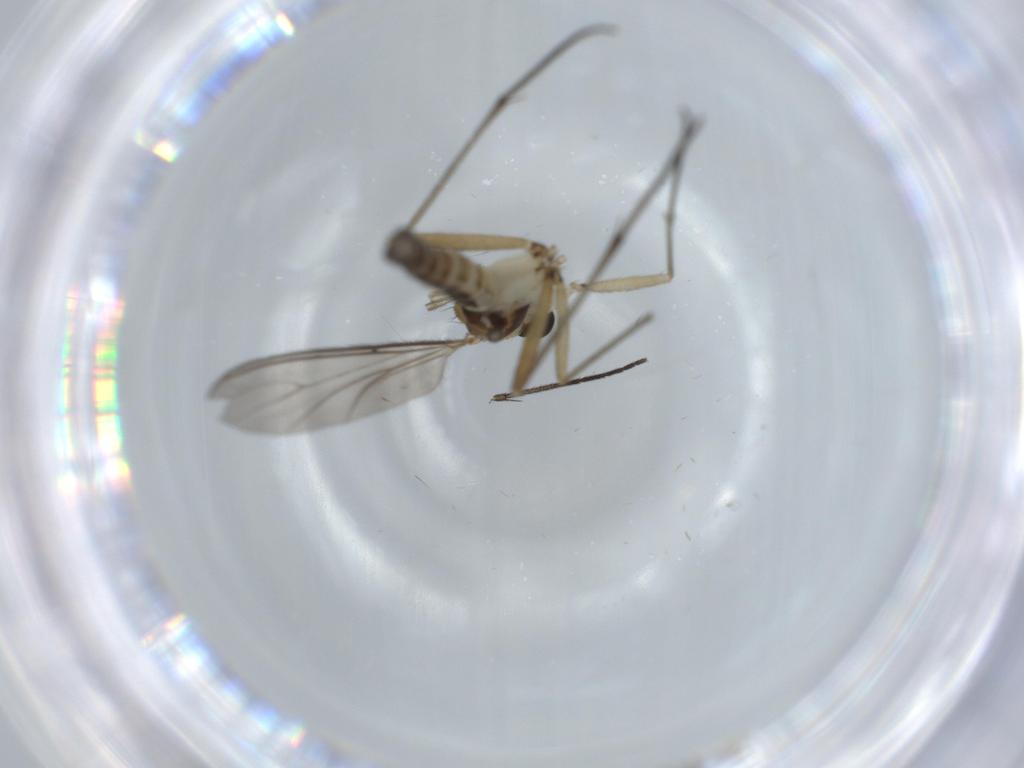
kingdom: Animalia
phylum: Arthropoda
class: Insecta
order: Diptera
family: Sciaridae
